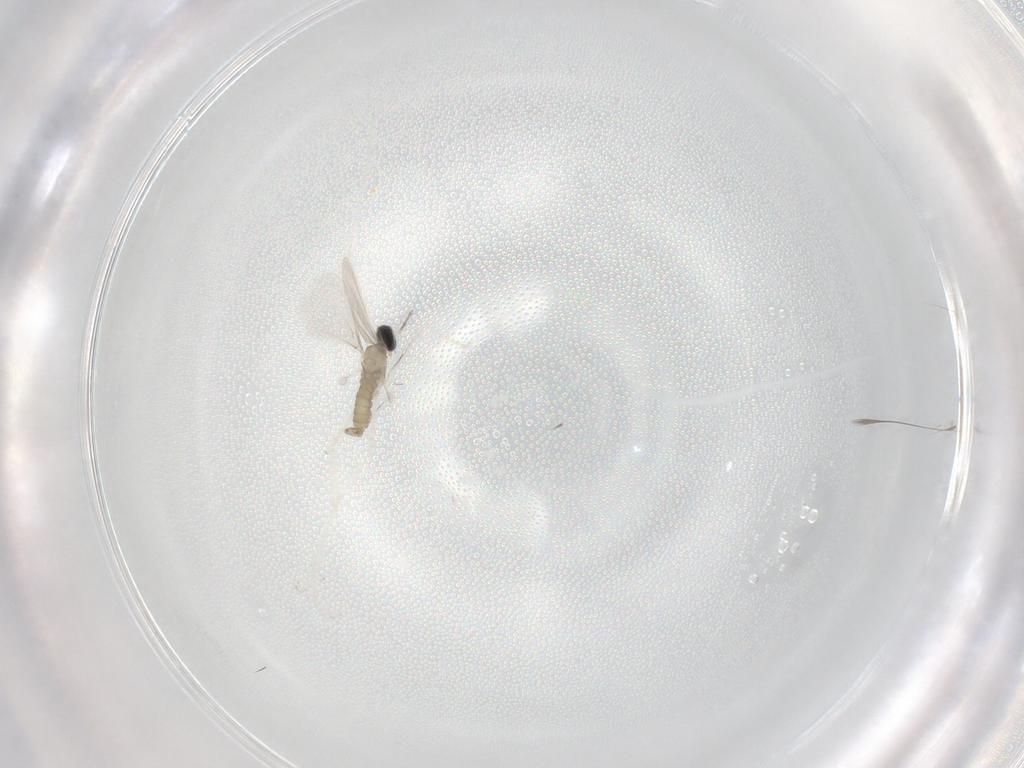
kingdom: Animalia
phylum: Arthropoda
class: Insecta
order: Diptera
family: Cecidomyiidae
